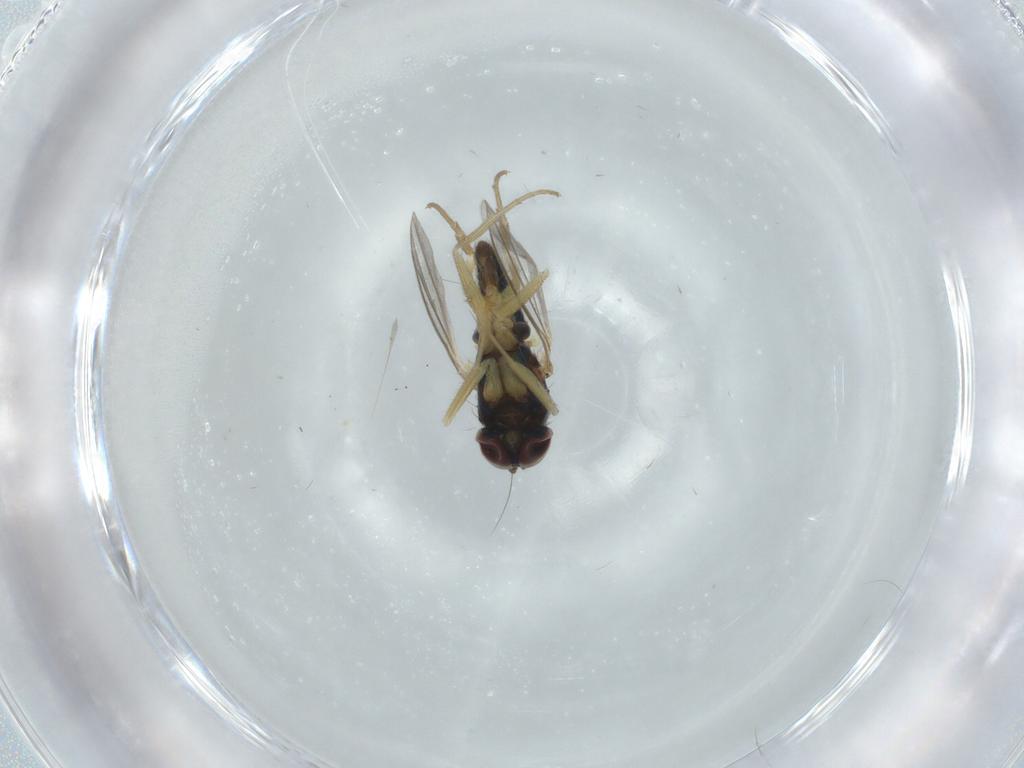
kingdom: Animalia
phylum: Arthropoda
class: Insecta
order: Diptera
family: Dolichopodidae
